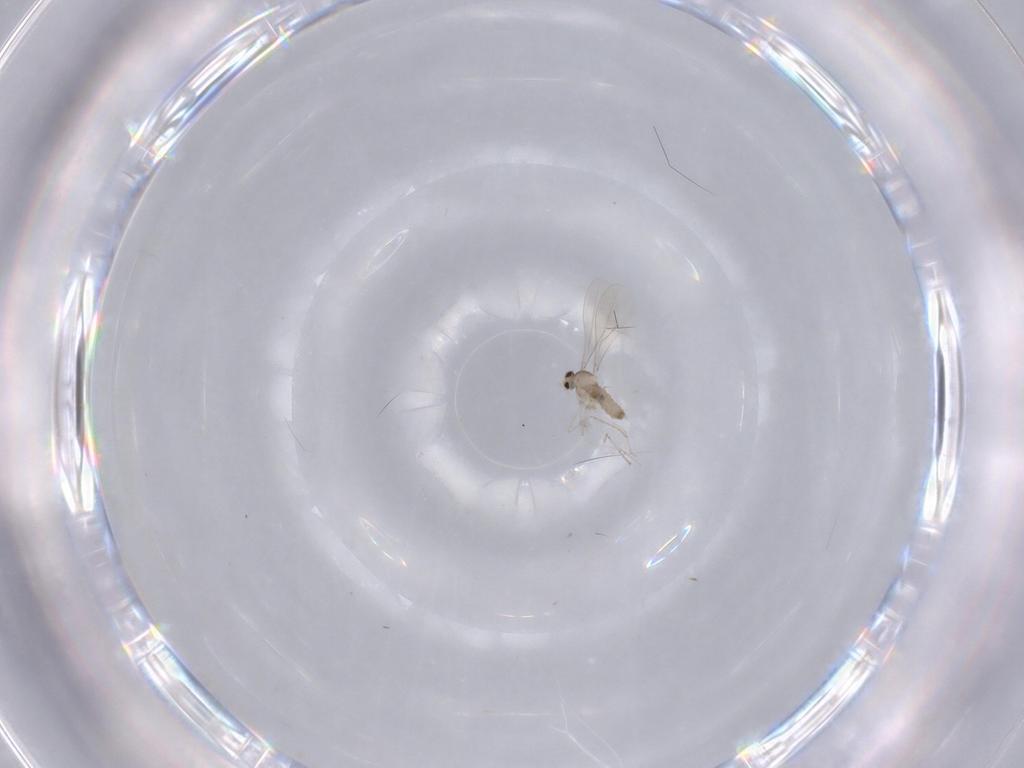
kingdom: Animalia
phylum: Arthropoda
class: Insecta
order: Diptera
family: Cecidomyiidae
